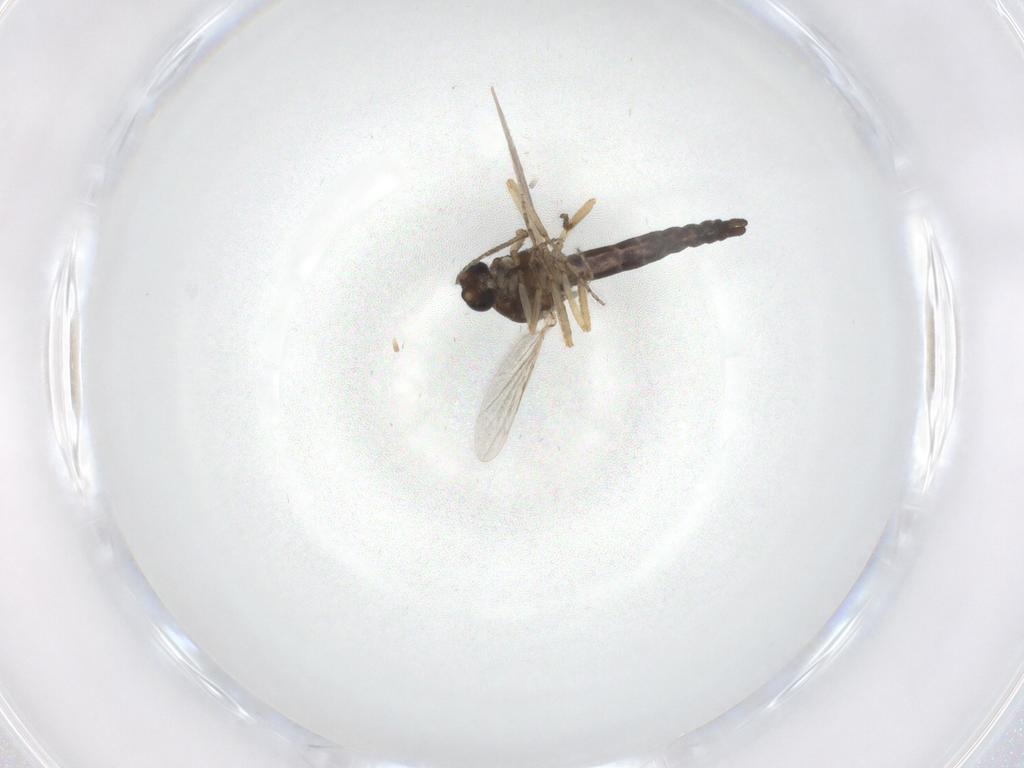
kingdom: Animalia
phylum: Arthropoda
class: Insecta
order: Diptera
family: Ceratopogonidae
